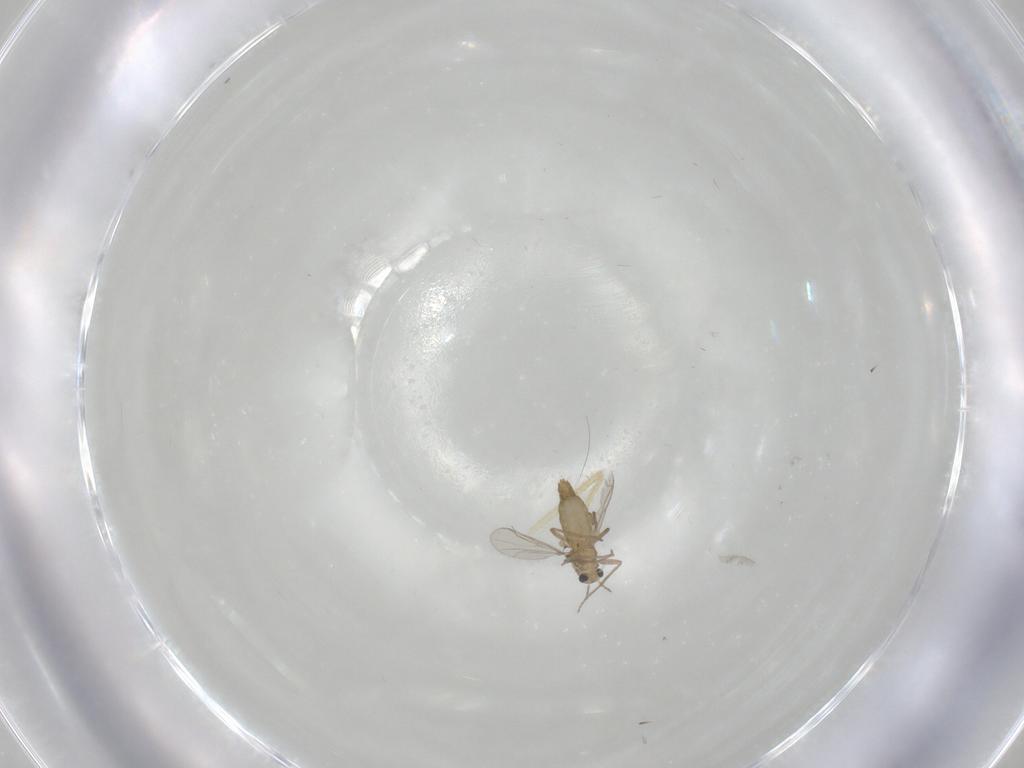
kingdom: Animalia
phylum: Arthropoda
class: Insecta
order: Diptera
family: Chironomidae
